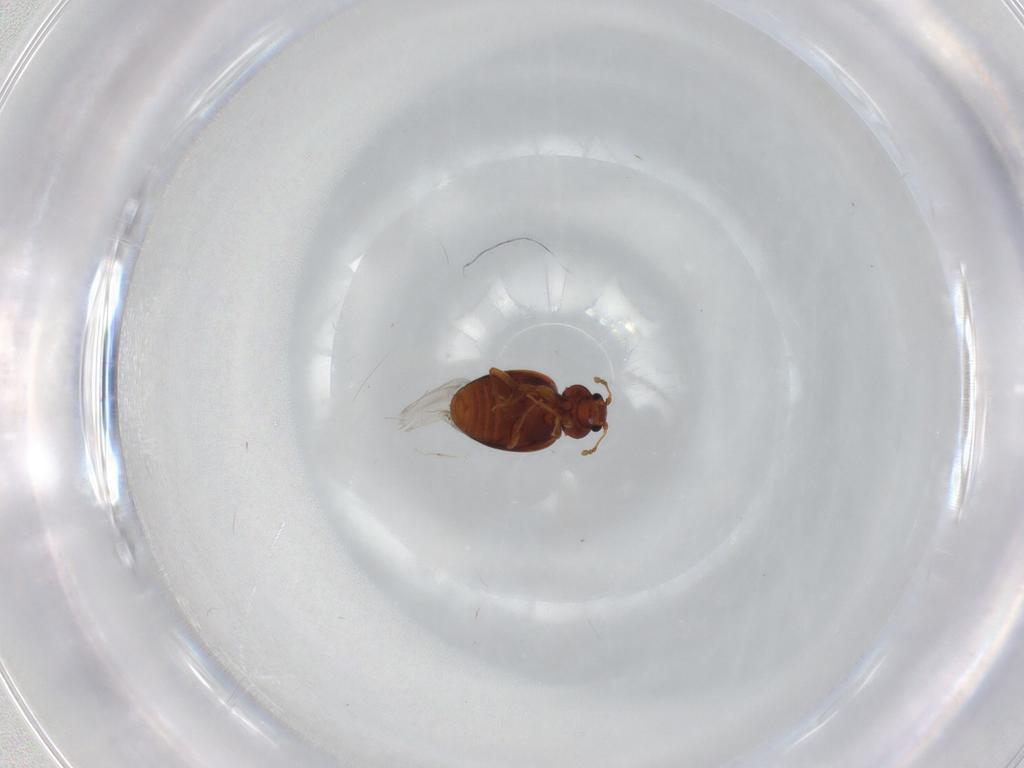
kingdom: Animalia
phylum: Arthropoda
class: Insecta
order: Coleoptera
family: Latridiidae
